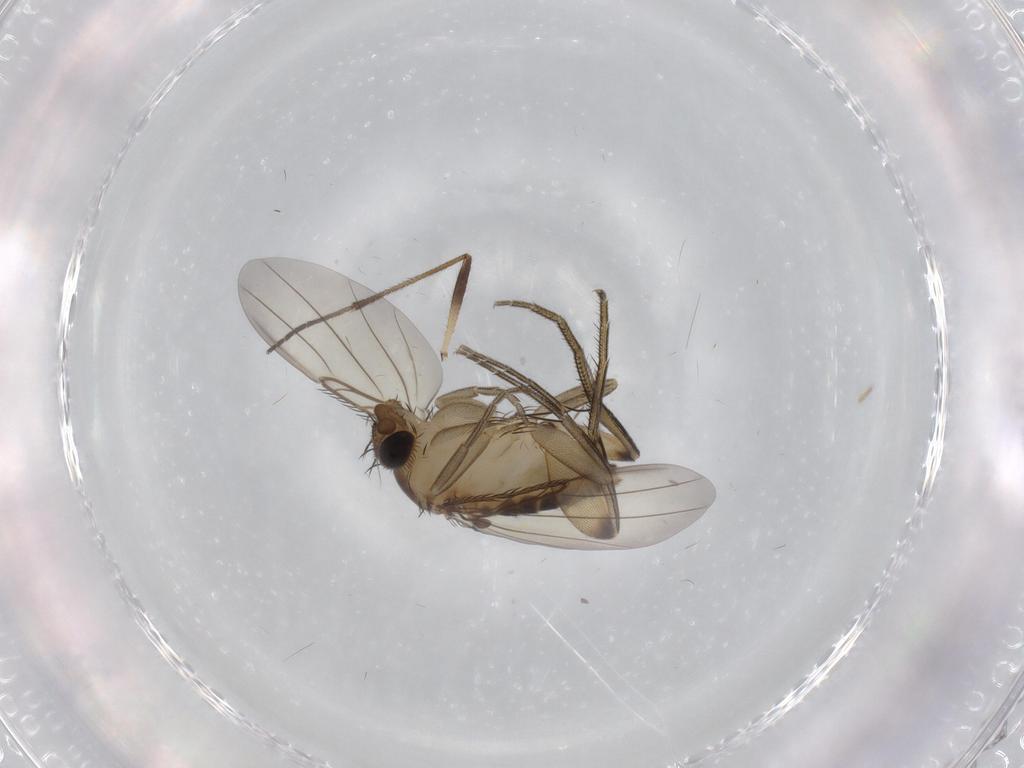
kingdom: Animalia
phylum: Arthropoda
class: Insecta
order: Diptera
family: Phoridae
